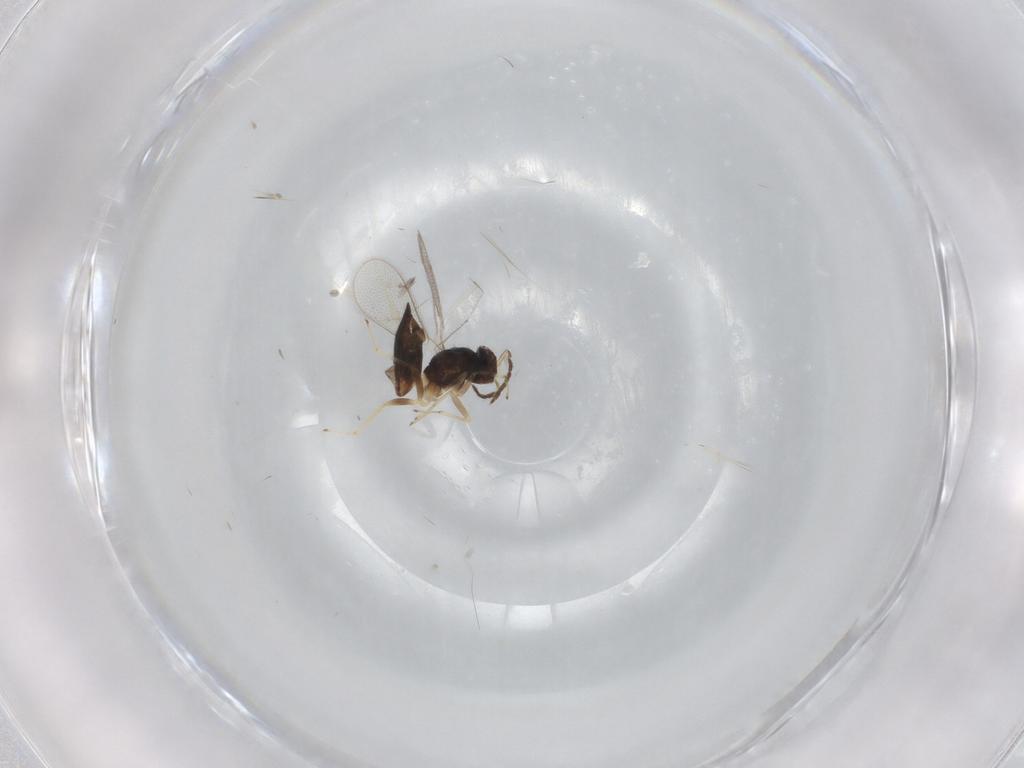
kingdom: Animalia
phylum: Arthropoda
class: Insecta
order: Hymenoptera
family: Eulophidae
